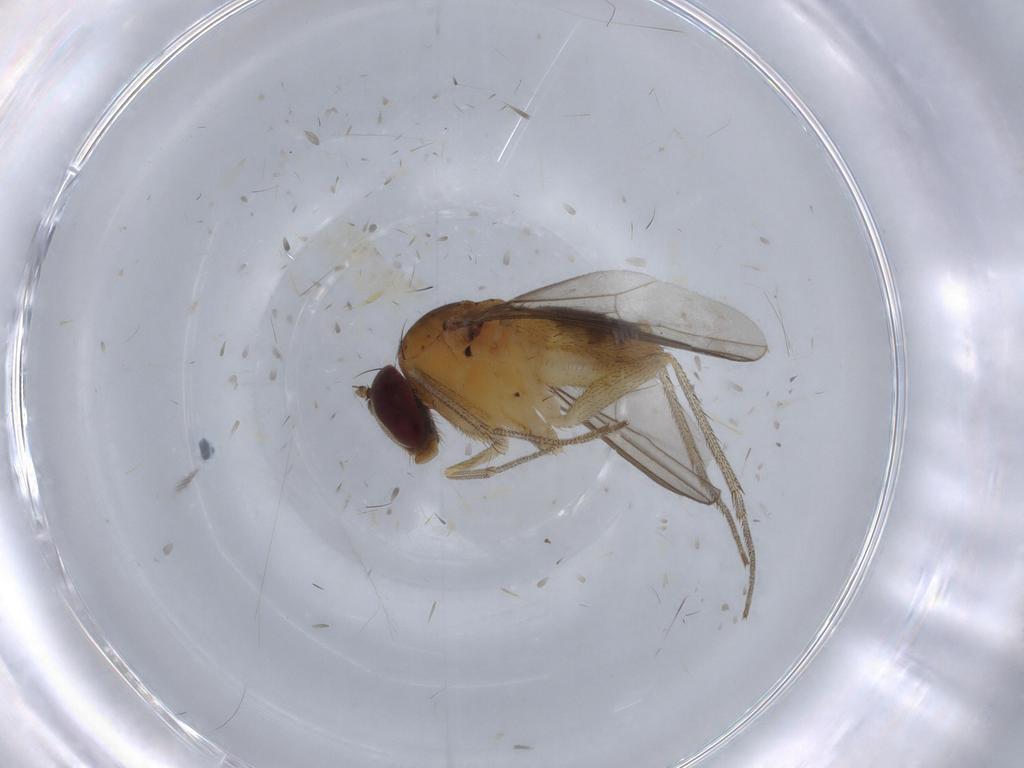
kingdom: Animalia
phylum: Arthropoda
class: Insecta
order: Diptera
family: Dolichopodidae
